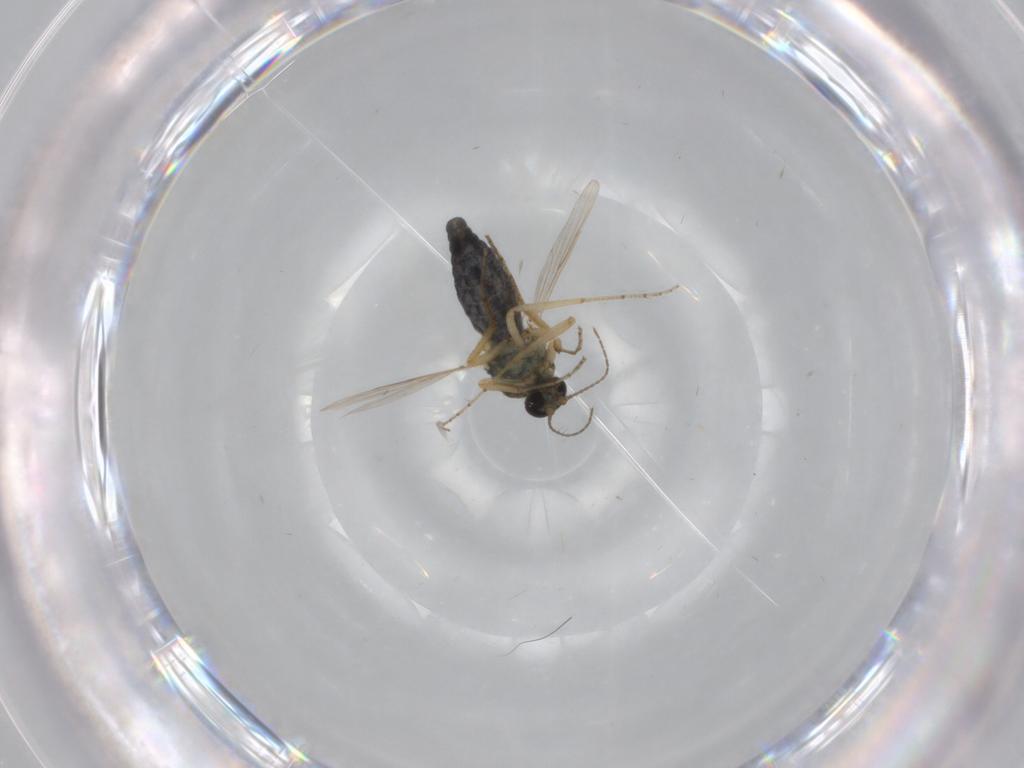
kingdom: Animalia
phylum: Arthropoda
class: Insecta
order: Diptera
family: Ceratopogonidae
